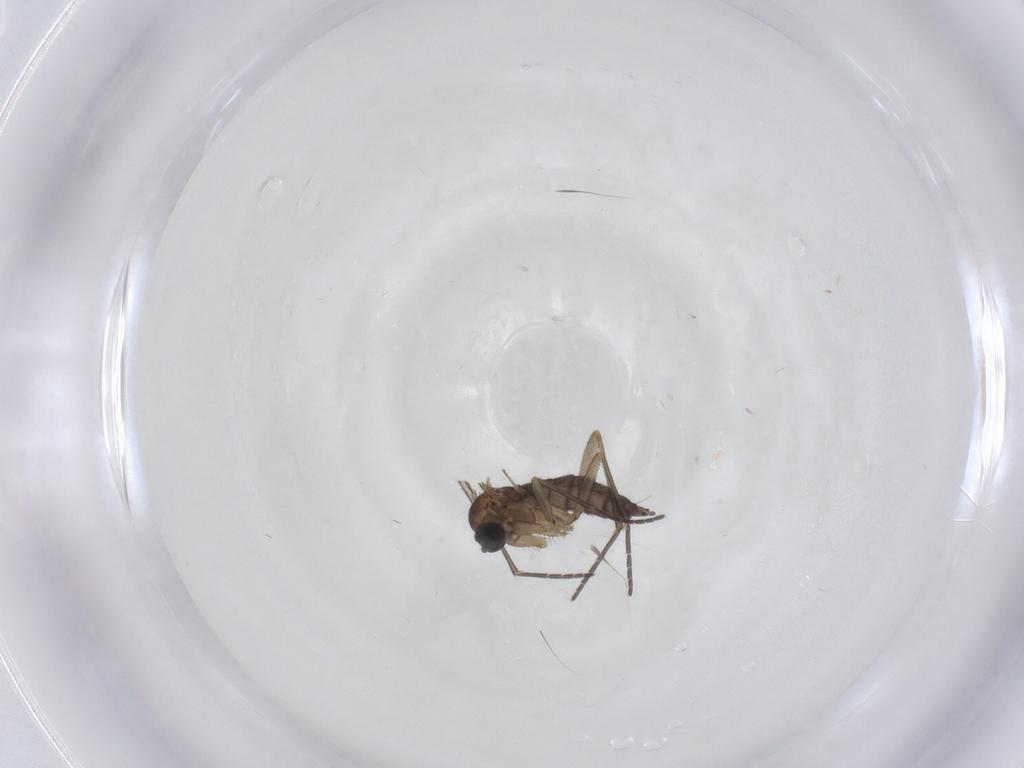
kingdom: Animalia
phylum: Arthropoda
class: Insecta
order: Diptera
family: Sciaridae
